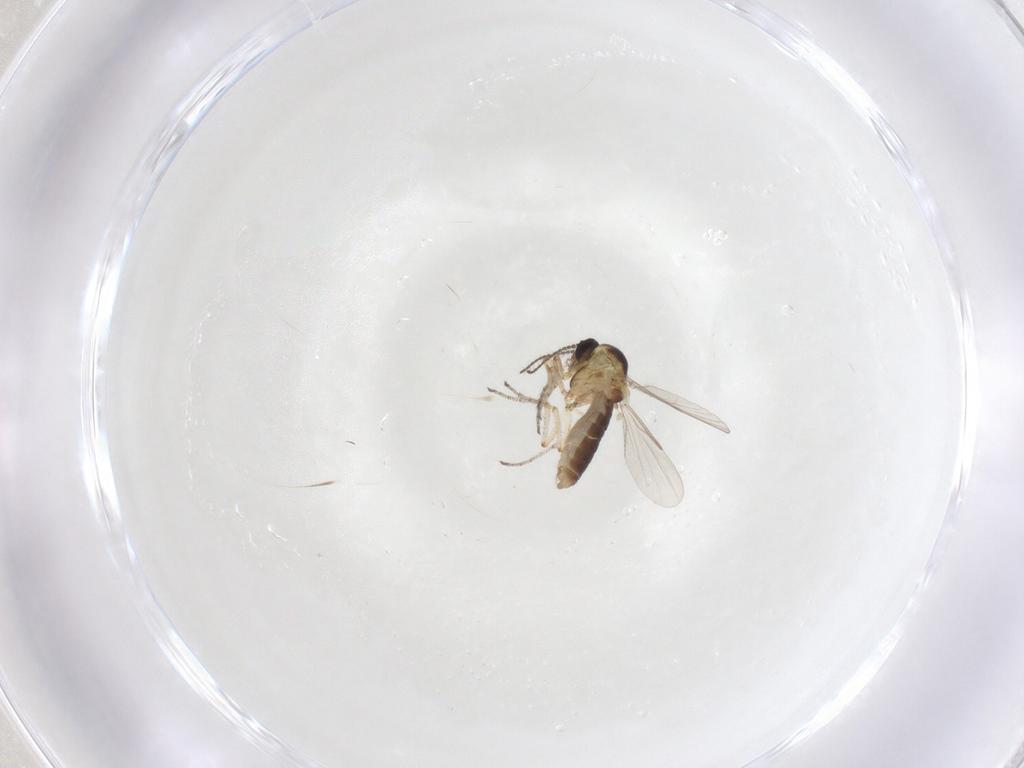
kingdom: Animalia
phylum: Arthropoda
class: Insecta
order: Diptera
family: Ceratopogonidae
